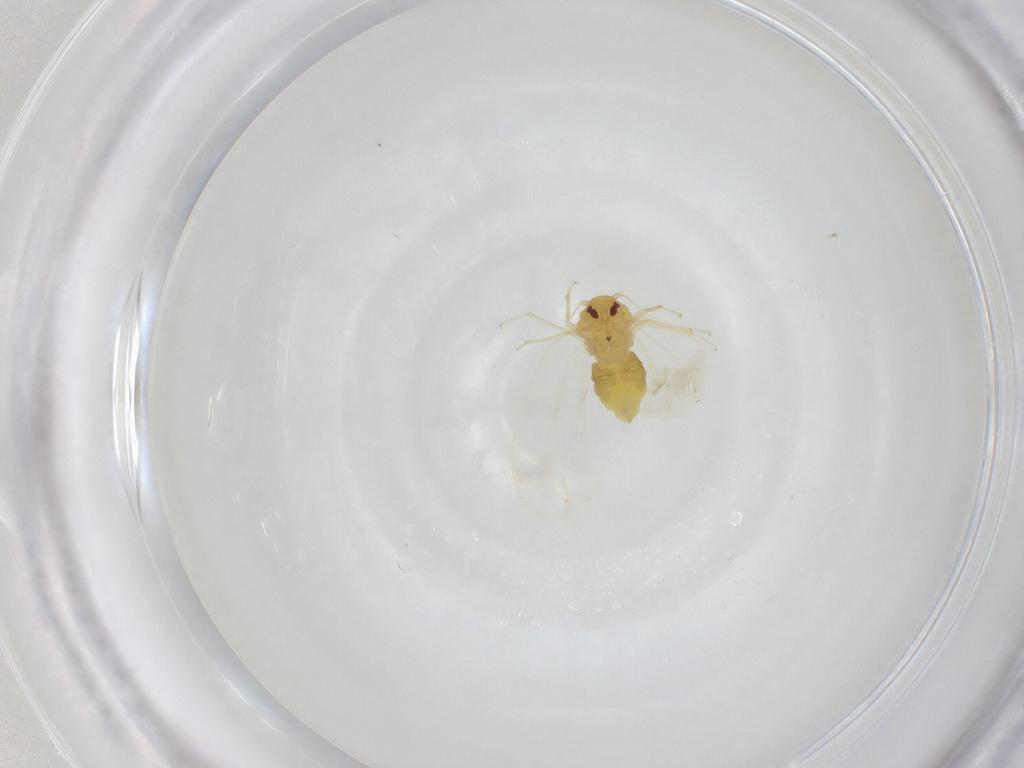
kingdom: Animalia
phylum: Arthropoda
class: Insecta
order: Hemiptera
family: Aleyrodidae
